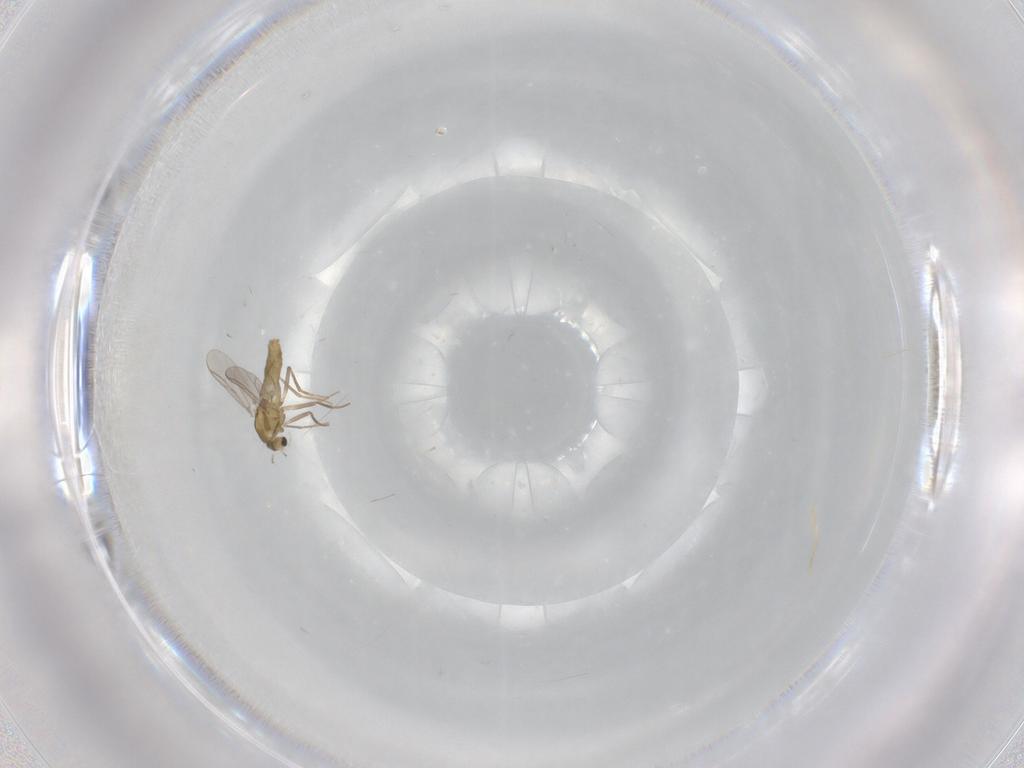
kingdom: Animalia
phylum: Arthropoda
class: Insecta
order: Diptera
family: Chironomidae
